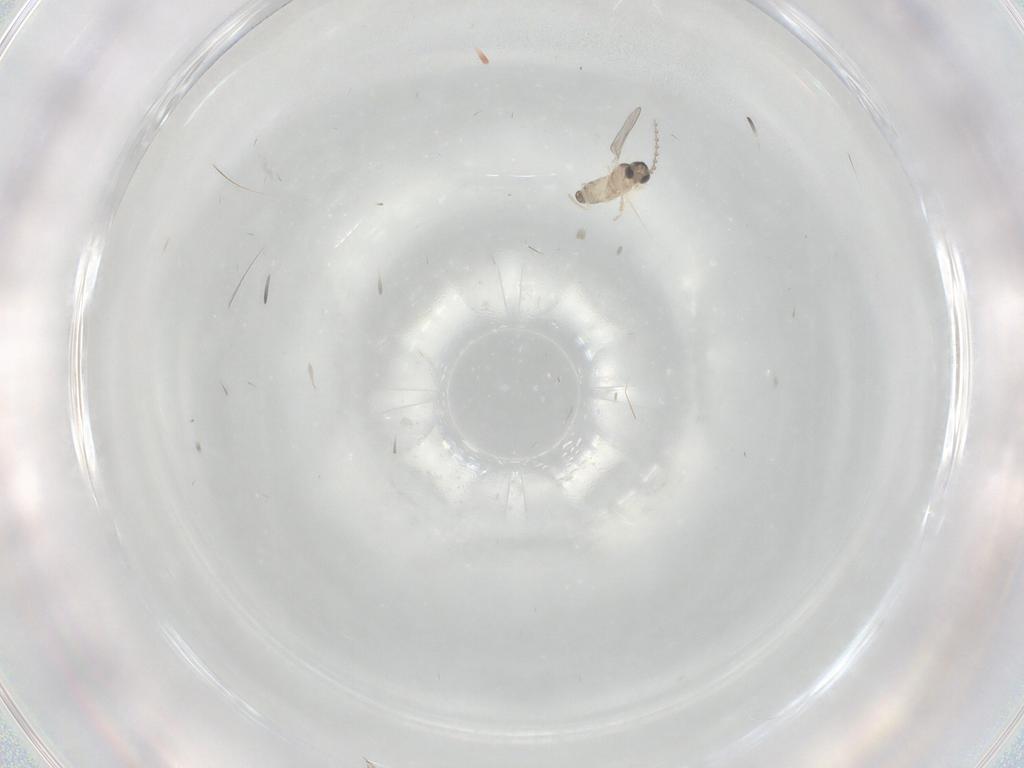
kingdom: Animalia
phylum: Arthropoda
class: Insecta
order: Diptera
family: Cecidomyiidae
